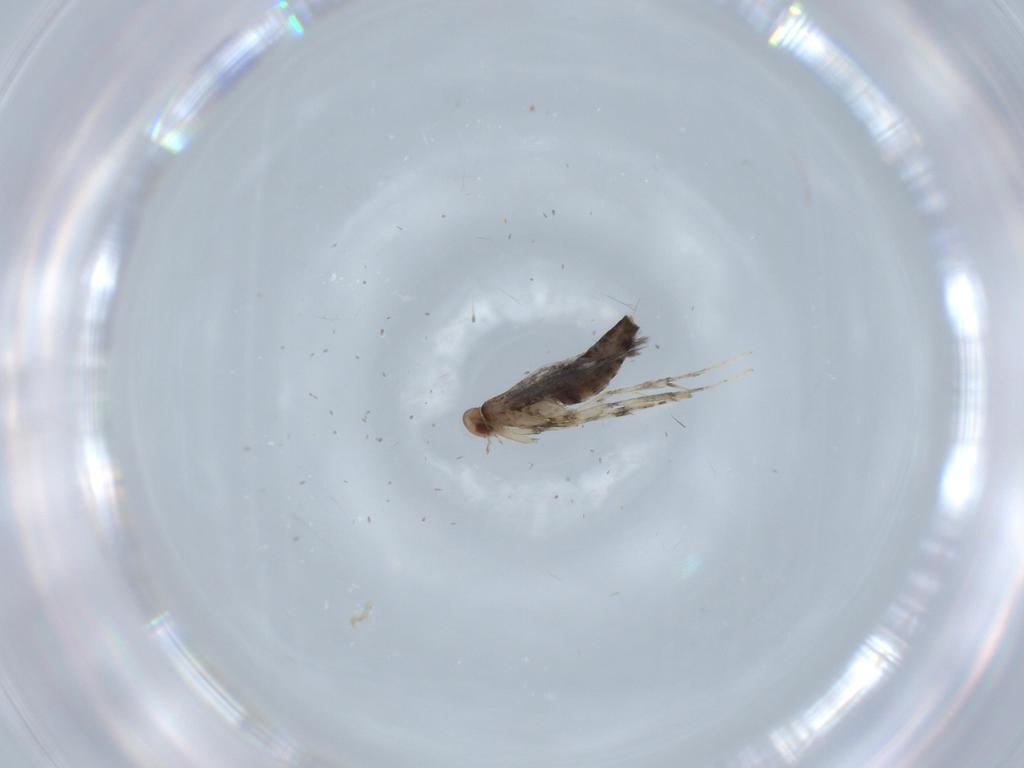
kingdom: Animalia
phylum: Arthropoda
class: Insecta
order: Lepidoptera
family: Gracillariidae
